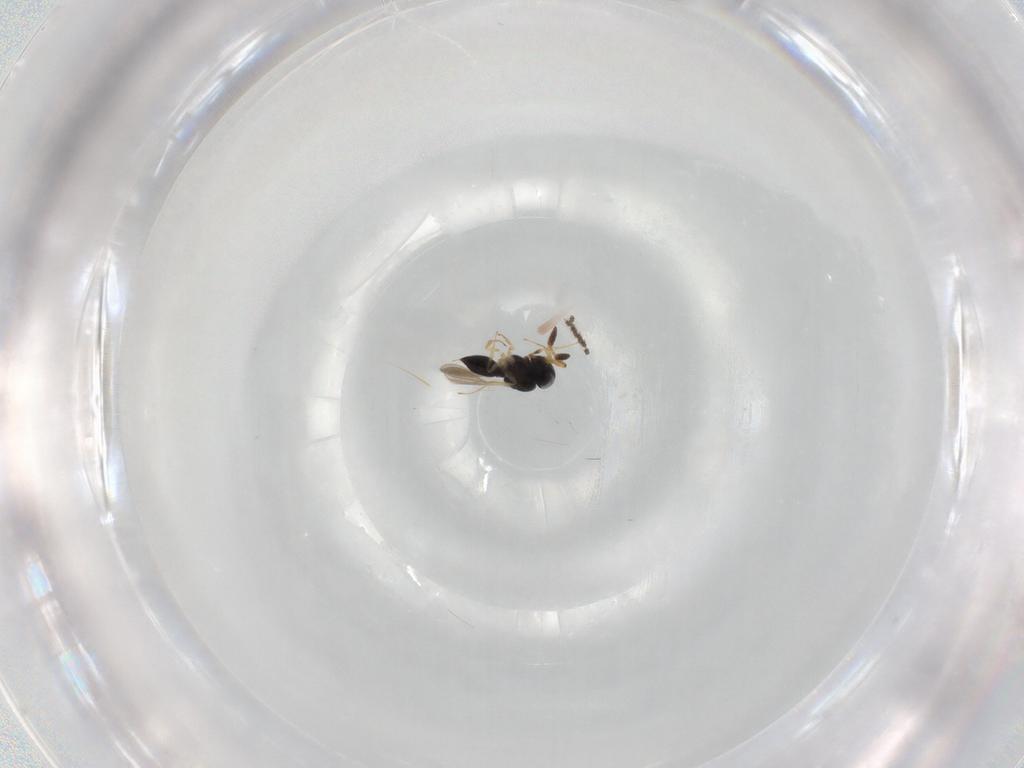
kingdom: Animalia
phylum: Arthropoda
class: Insecta
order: Hymenoptera
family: Scelionidae
